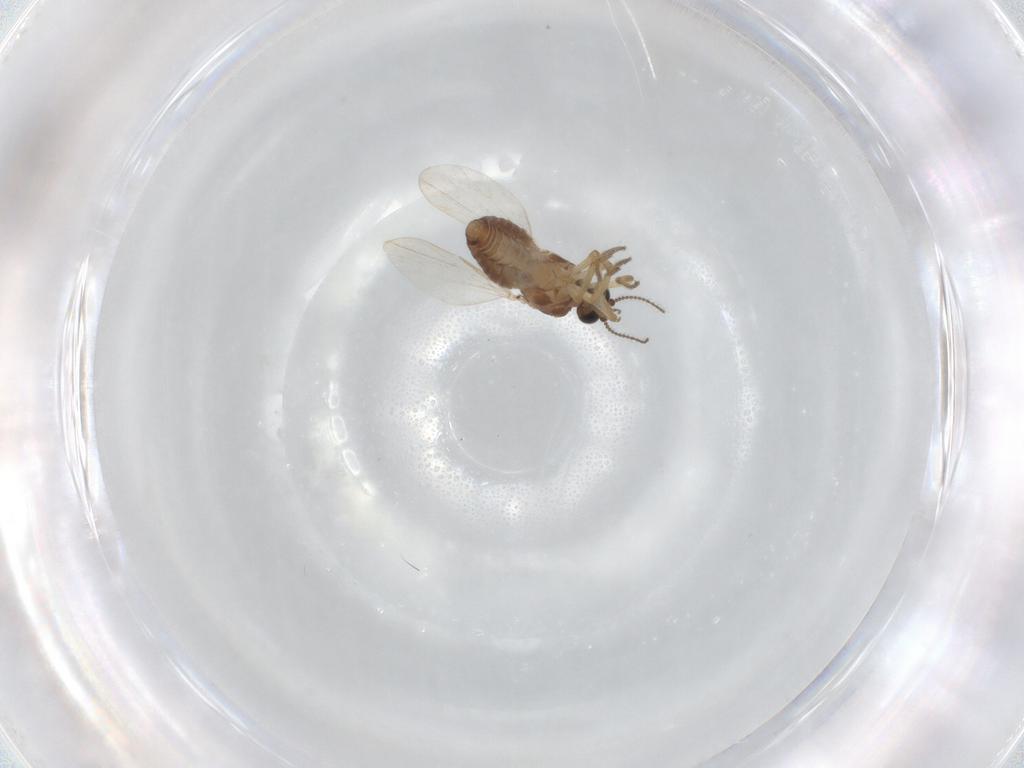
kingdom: Animalia
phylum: Arthropoda
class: Insecta
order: Diptera
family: Ceratopogonidae
